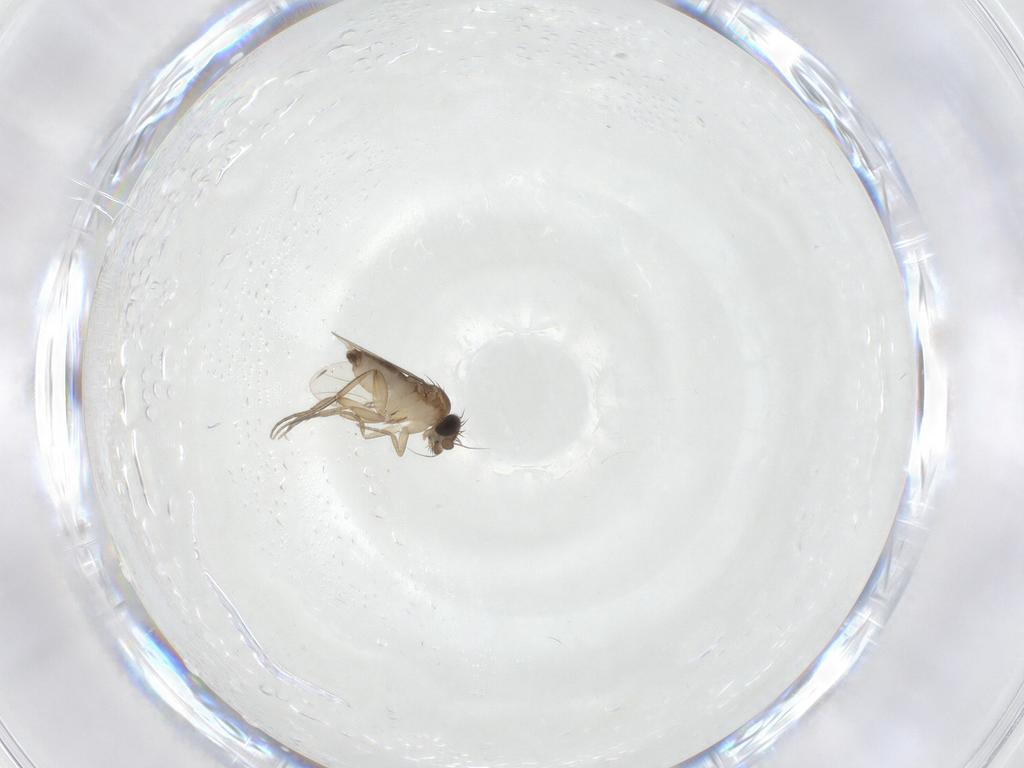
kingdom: Animalia
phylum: Arthropoda
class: Insecta
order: Diptera
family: Phoridae
